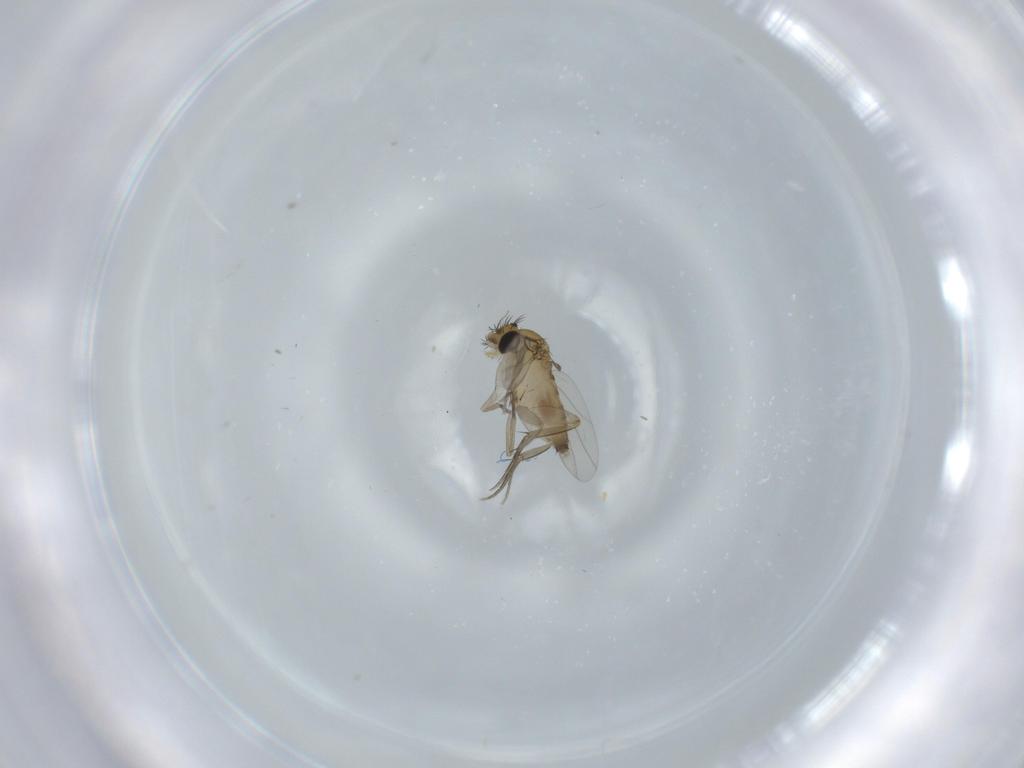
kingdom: Animalia
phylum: Arthropoda
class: Insecta
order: Diptera
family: Phoridae
